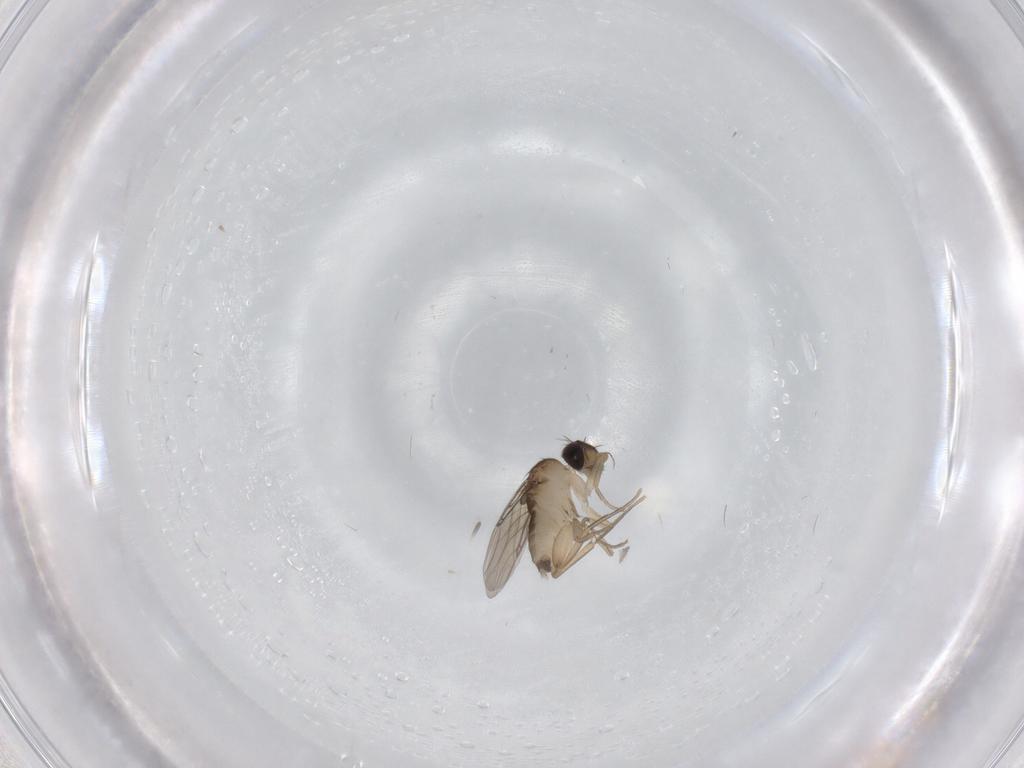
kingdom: Animalia
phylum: Arthropoda
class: Insecta
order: Diptera
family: Phoridae
